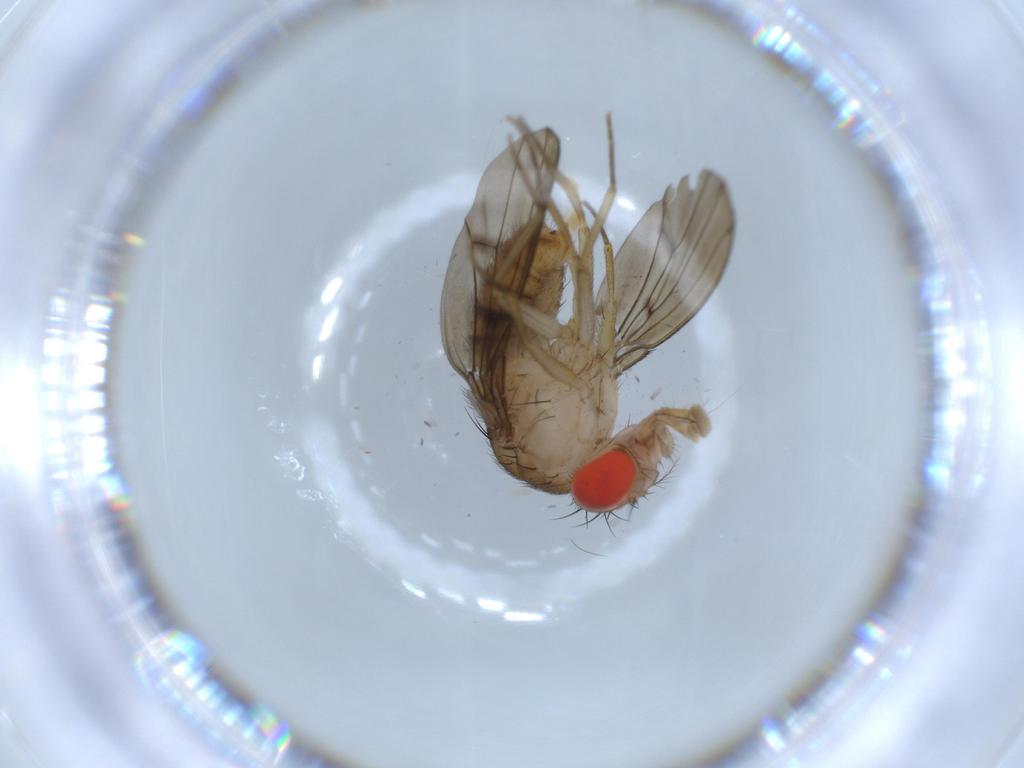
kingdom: Animalia
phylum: Arthropoda
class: Insecta
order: Diptera
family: Drosophilidae
